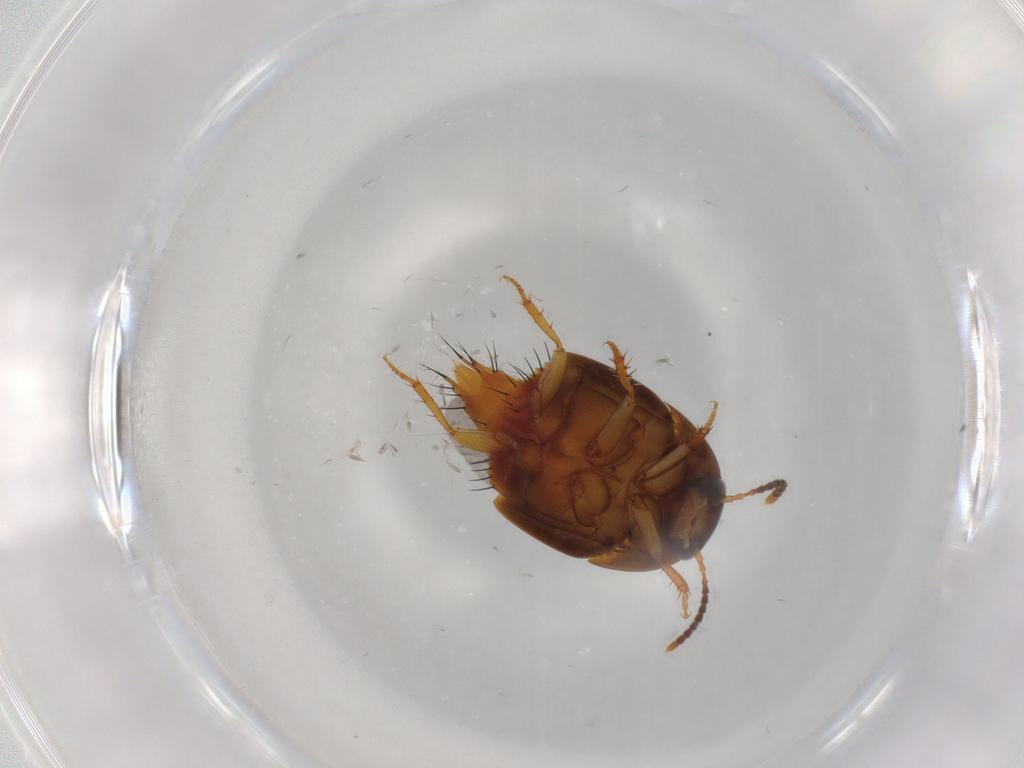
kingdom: Animalia
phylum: Arthropoda
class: Insecta
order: Coleoptera
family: Staphylinidae
